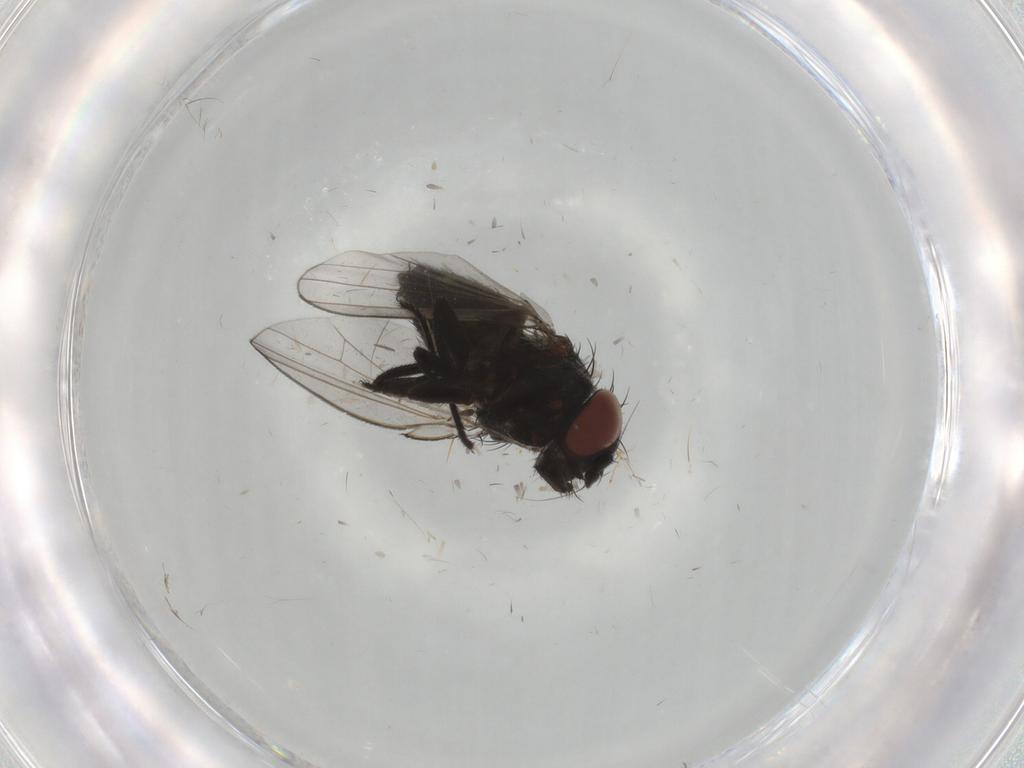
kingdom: Animalia
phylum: Arthropoda
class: Insecta
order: Diptera
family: Milichiidae
